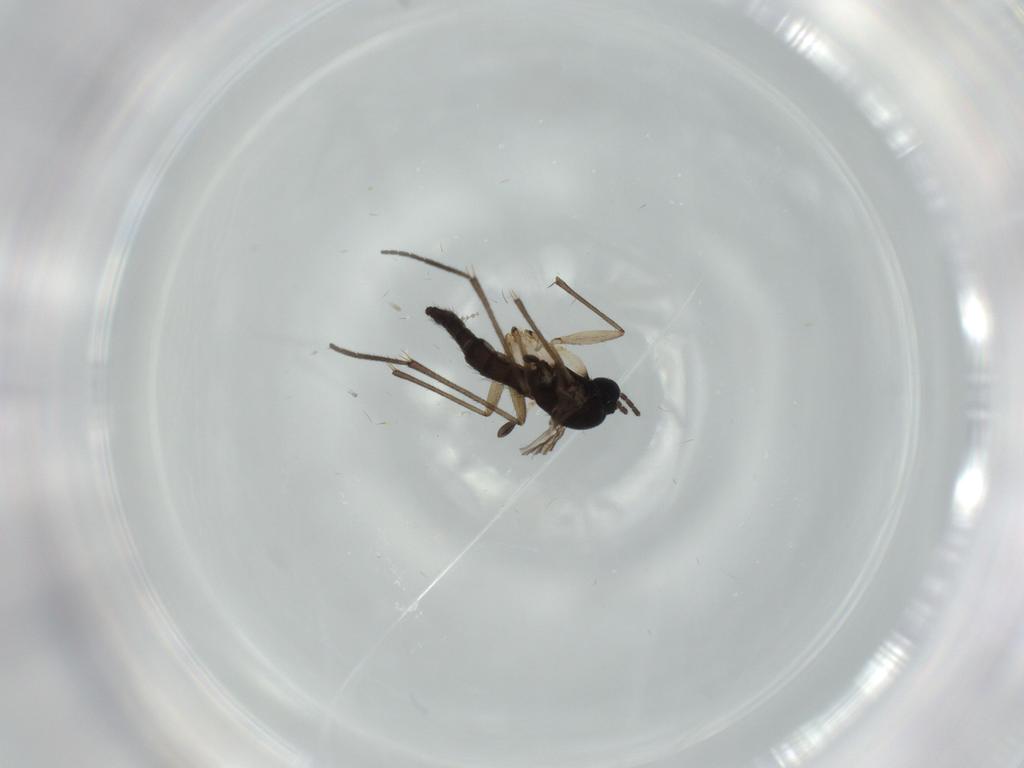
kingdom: Animalia
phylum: Arthropoda
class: Insecta
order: Diptera
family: Sciaridae
